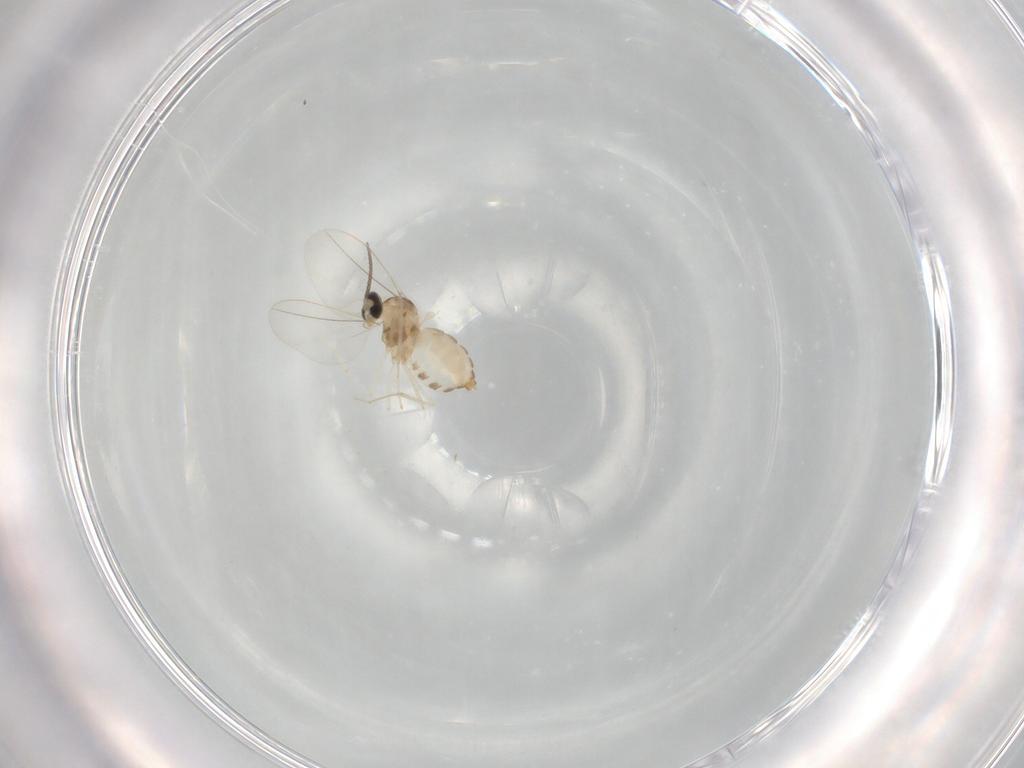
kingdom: Animalia
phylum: Arthropoda
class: Insecta
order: Diptera
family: Cecidomyiidae
